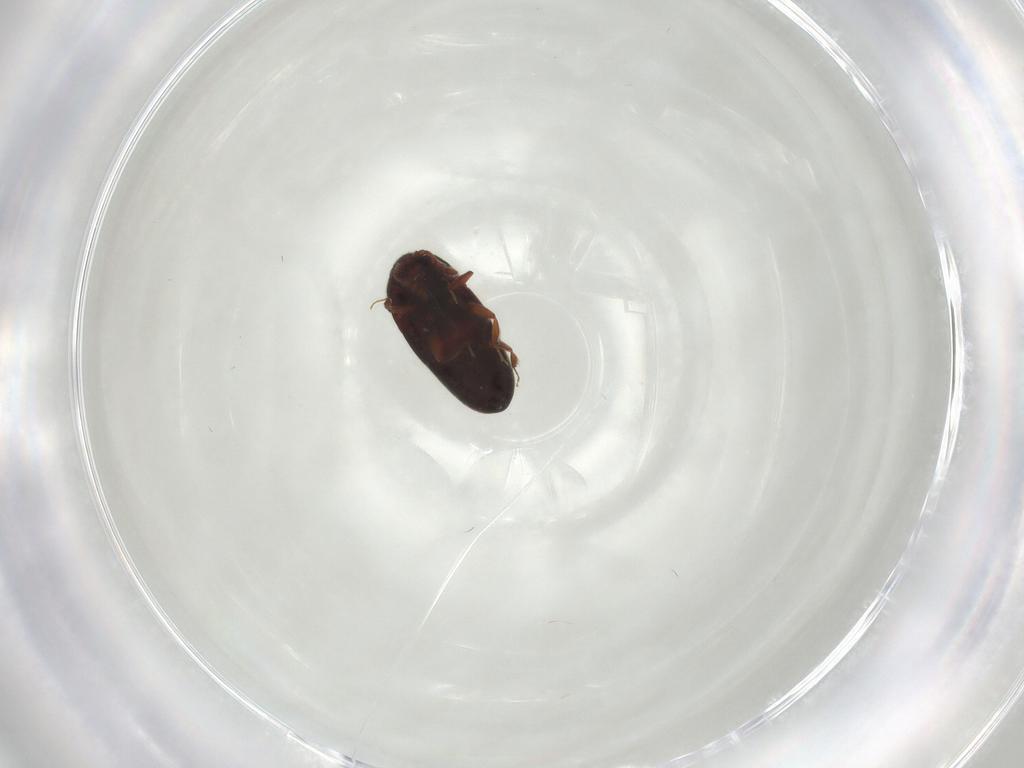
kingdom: Animalia
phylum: Arthropoda
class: Insecta
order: Coleoptera
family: Throscidae
